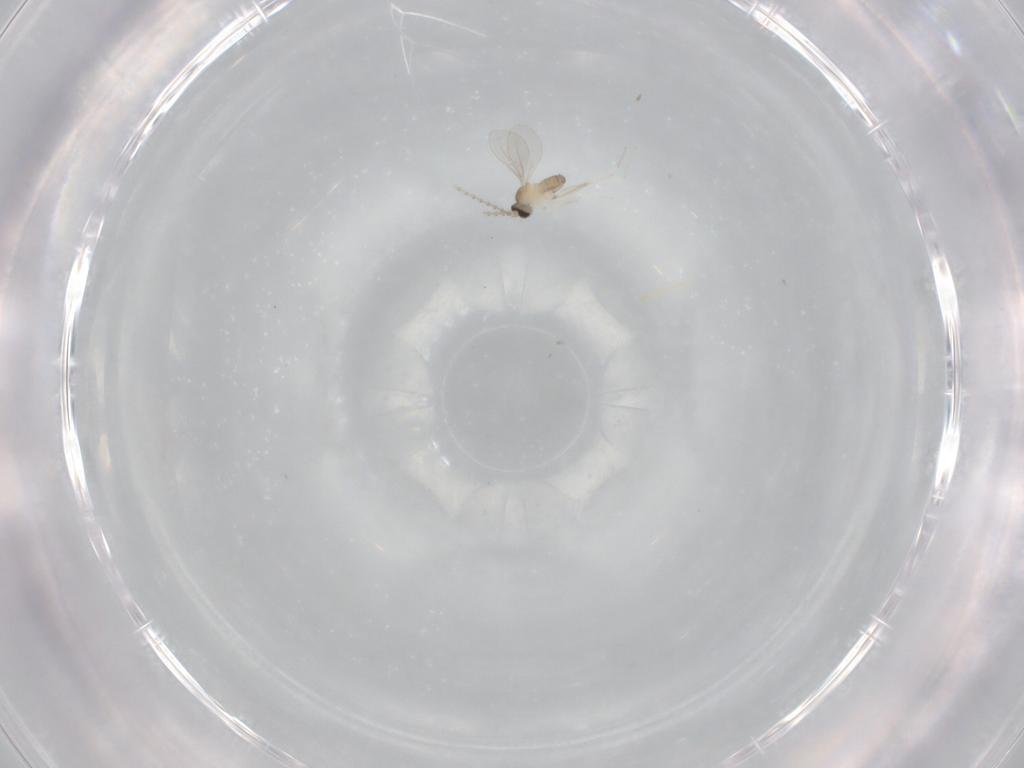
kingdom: Animalia
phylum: Arthropoda
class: Insecta
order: Diptera
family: Cecidomyiidae
